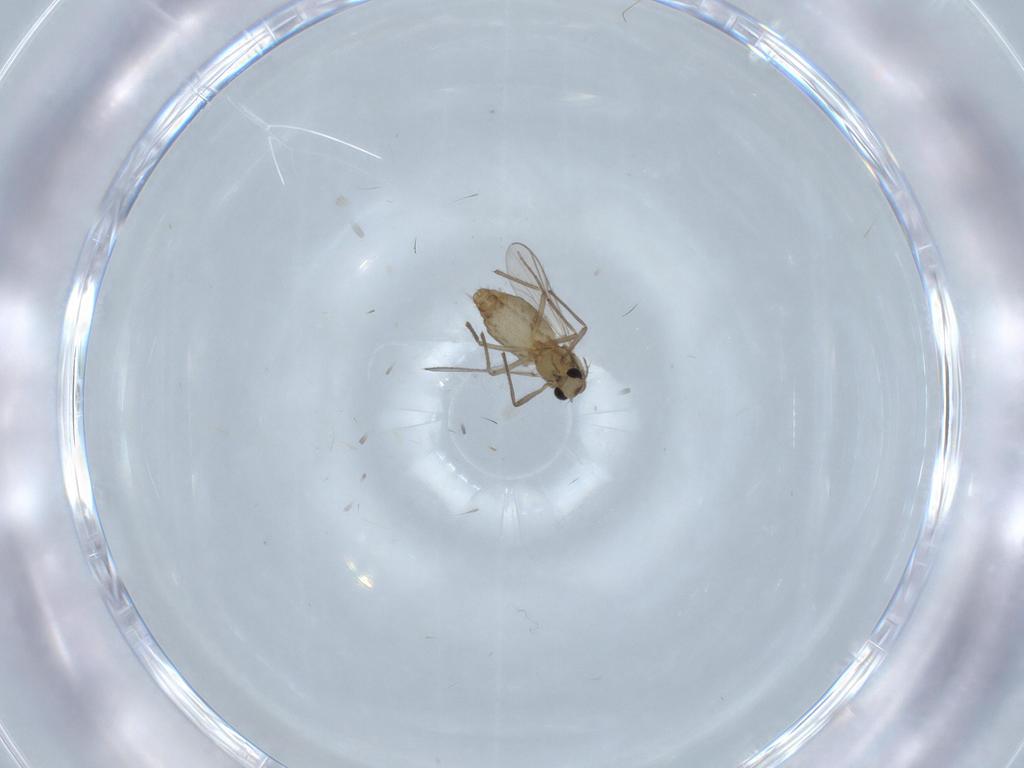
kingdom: Animalia
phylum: Arthropoda
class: Insecta
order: Diptera
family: Chironomidae
